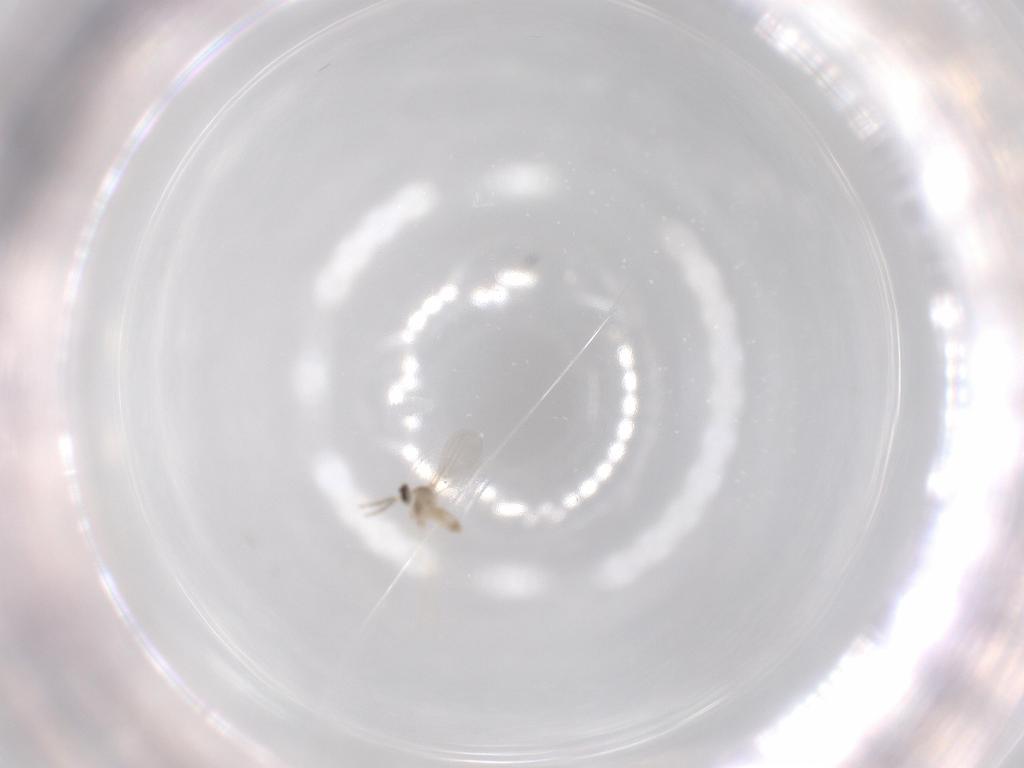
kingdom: Animalia
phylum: Arthropoda
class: Insecta
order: Diptera
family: Cecidomyiidae
